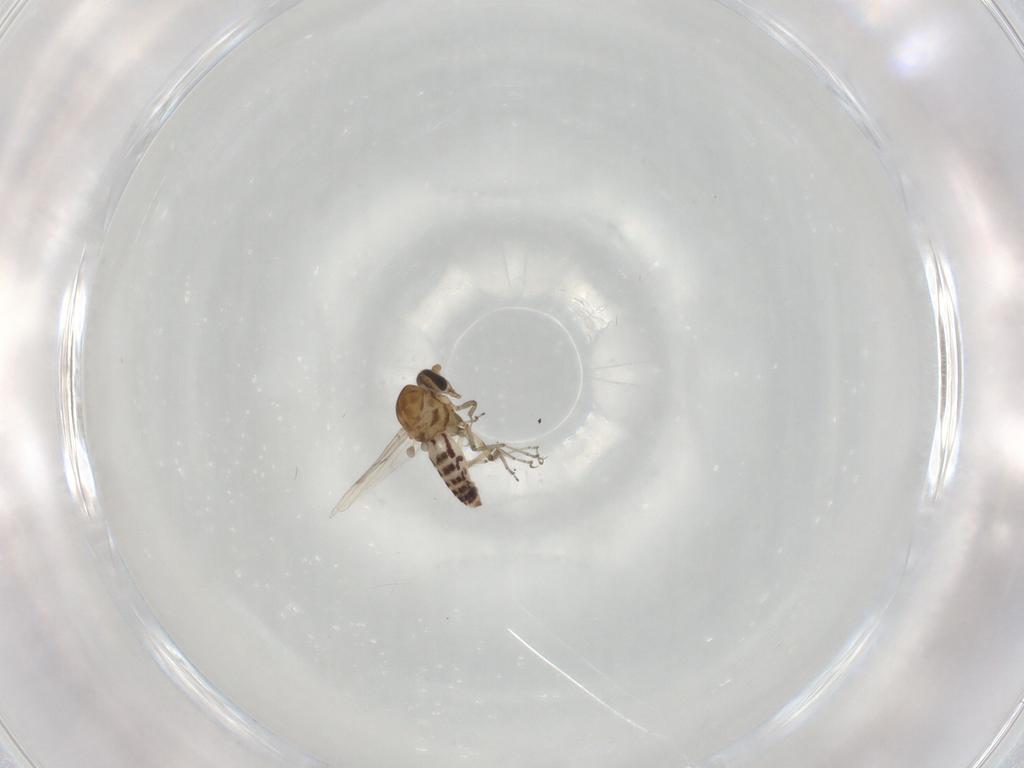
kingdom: Animalia
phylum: Arthropoda
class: Insecta
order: Diptera
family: Ceratopogonidae
